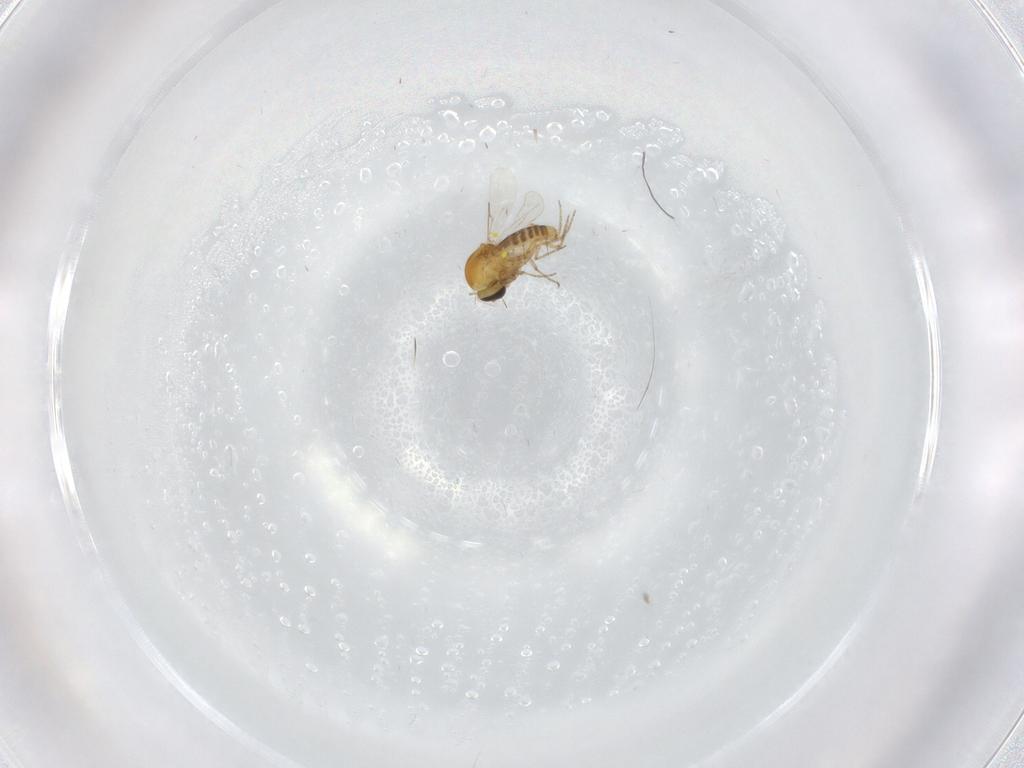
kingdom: Animalia
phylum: Arthropoda
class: Insecta
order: Diptera
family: Ceratopogonidae
